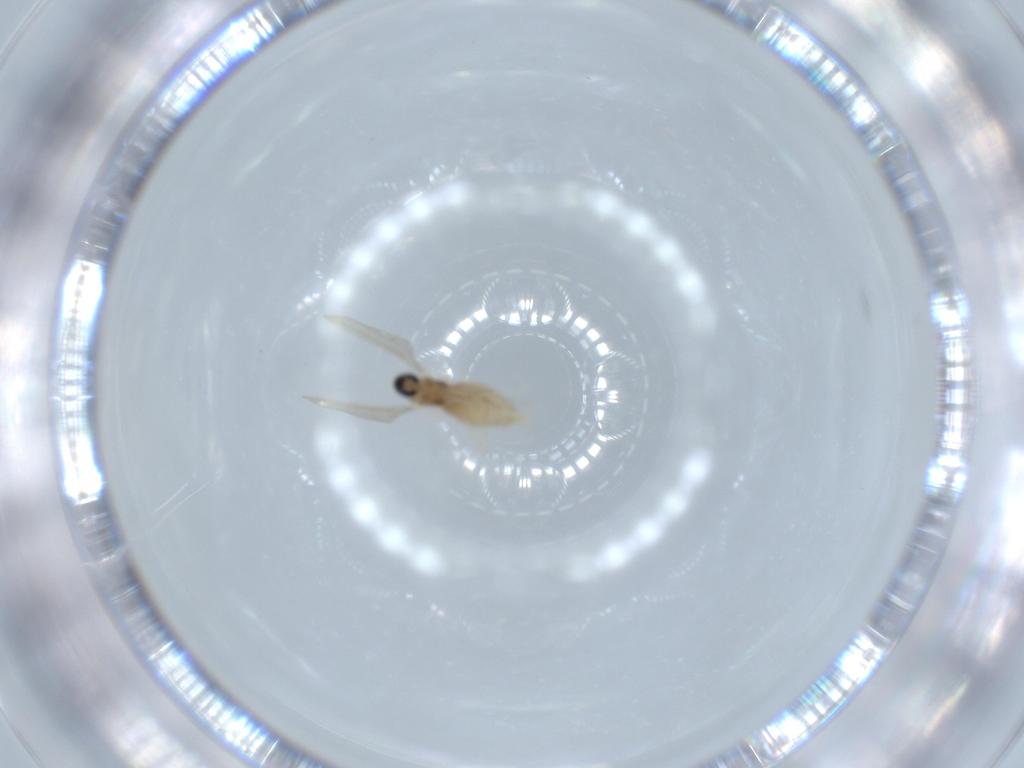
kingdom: Animalia
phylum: Arthropoda
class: Insecta
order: Diptera
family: Cecidomyiidae
